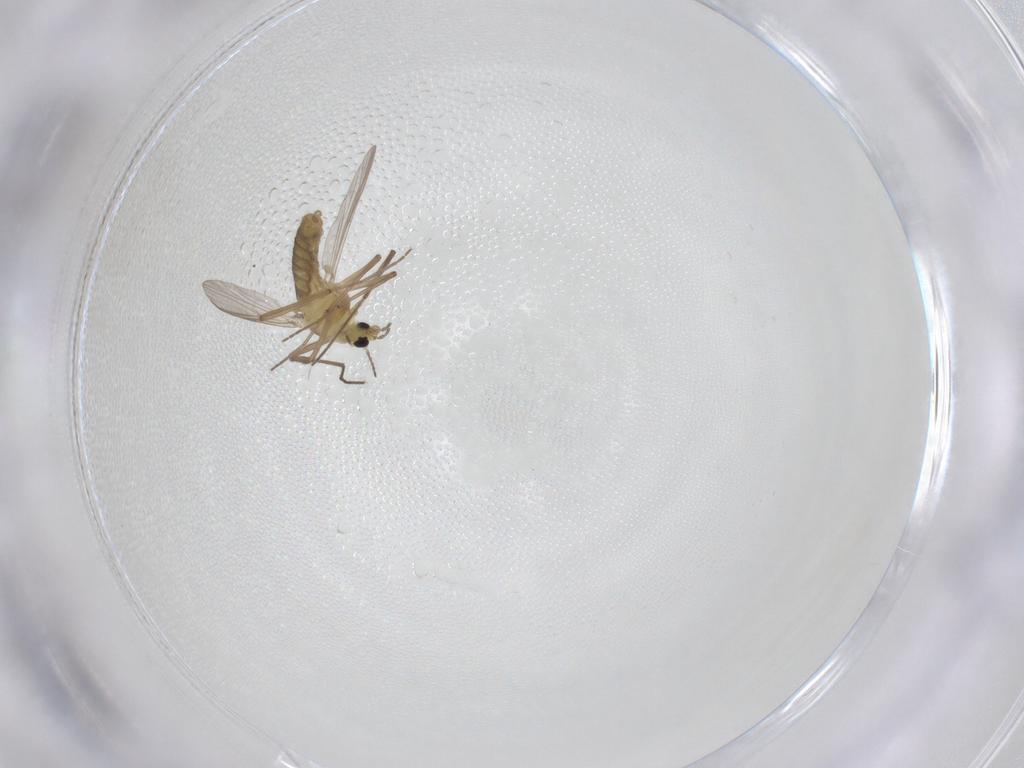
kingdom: Animalia
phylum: Arthropoda
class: Insecta
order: Diptera
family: Chironomidae
